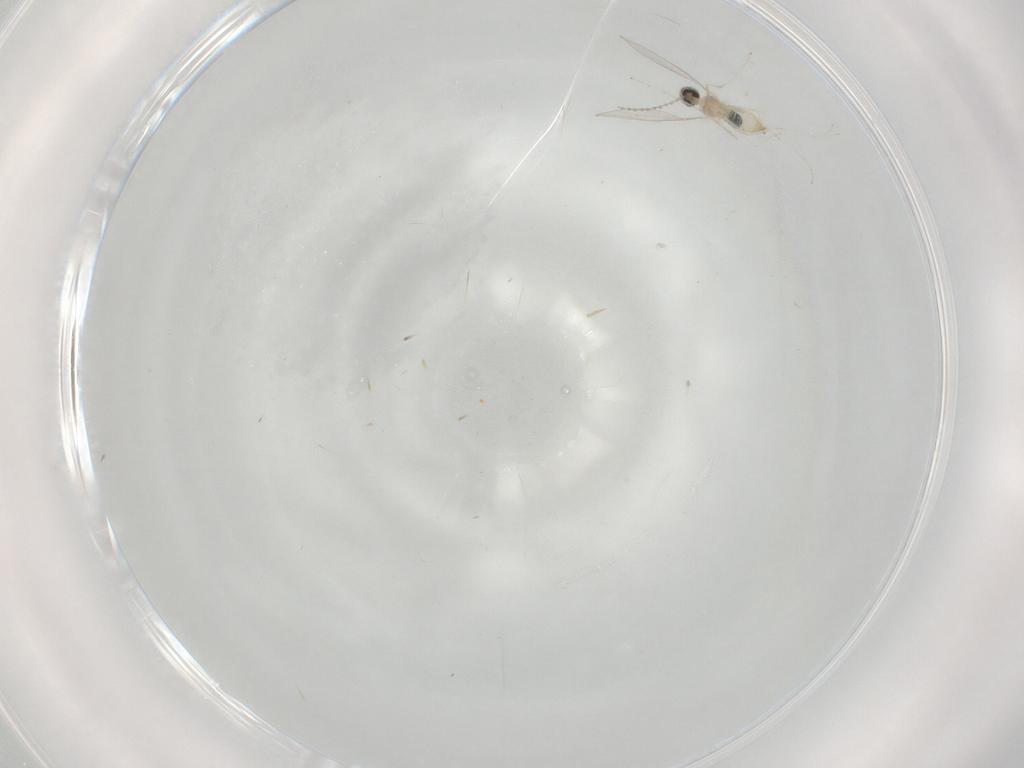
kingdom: Animalia
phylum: Arthropoda
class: Insecta
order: Diptera
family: Cecidomyiidae
